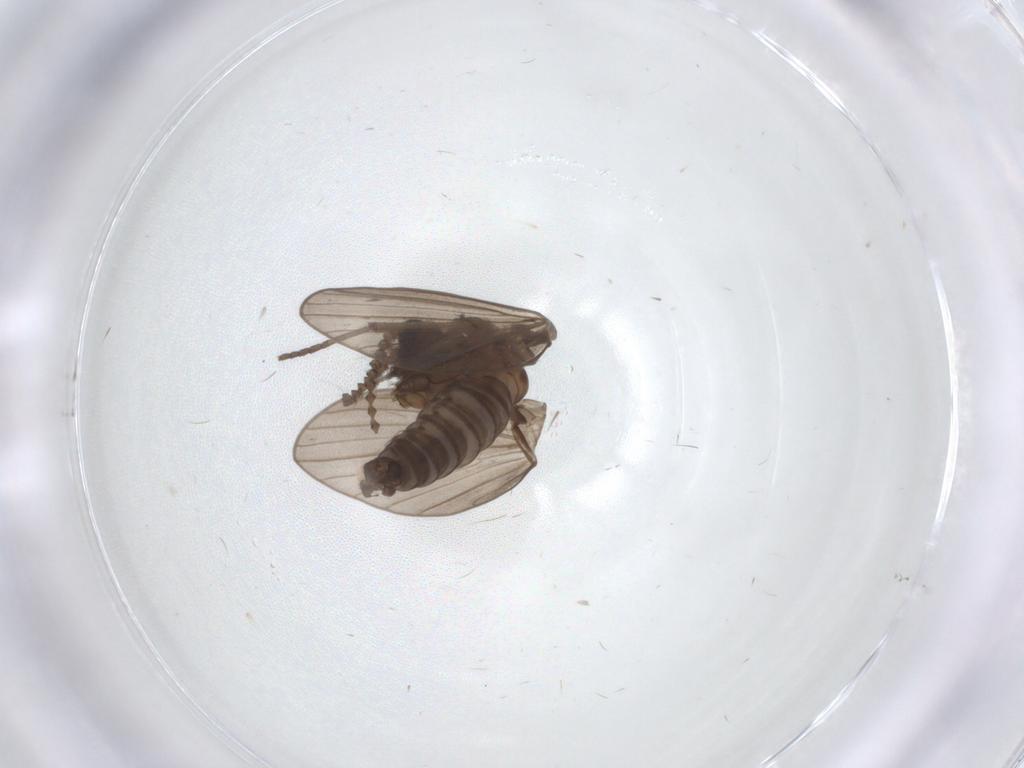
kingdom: Animalia
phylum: Arthropoda
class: Insecta
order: Diptera
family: Psychodidae
